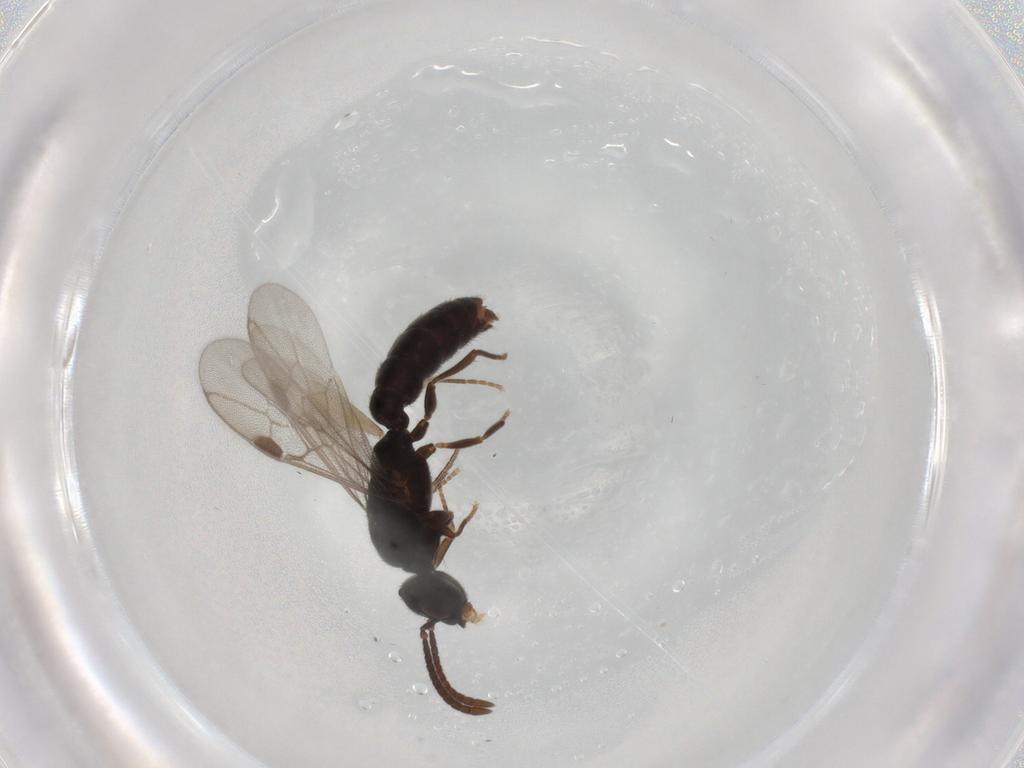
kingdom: Animalia
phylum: Arthropoda
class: Insecta
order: Hymenoptera
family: Formicidae
